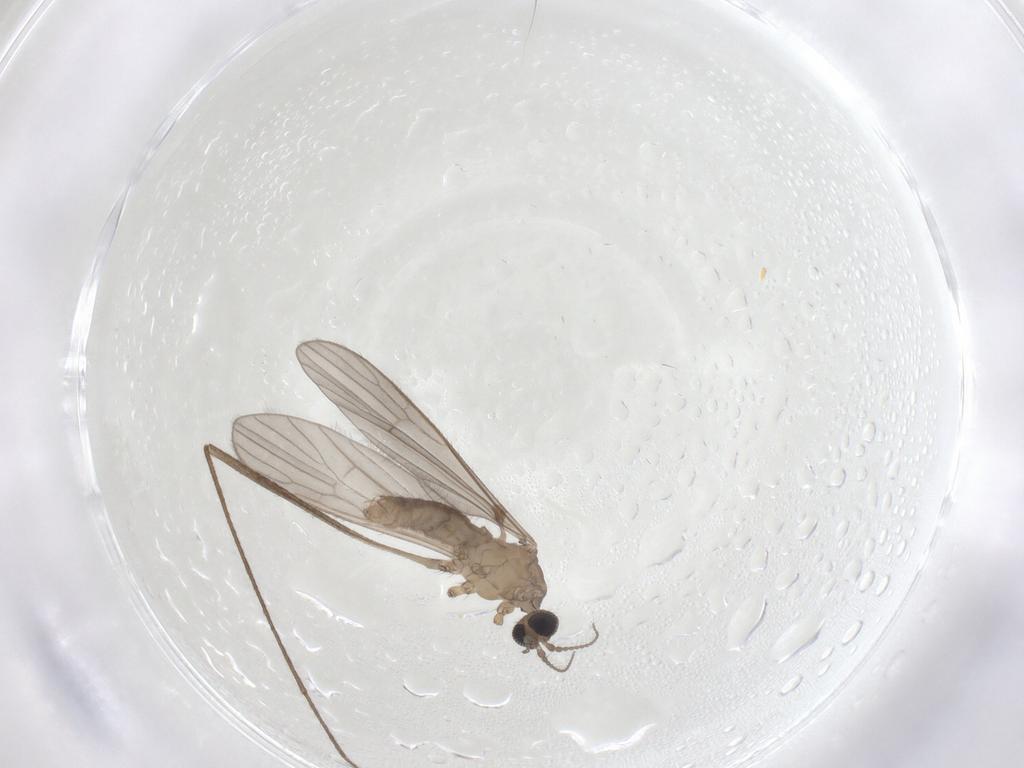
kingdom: Animalia
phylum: Arthropoda
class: Insecta
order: Diptera
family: Limoniidae
